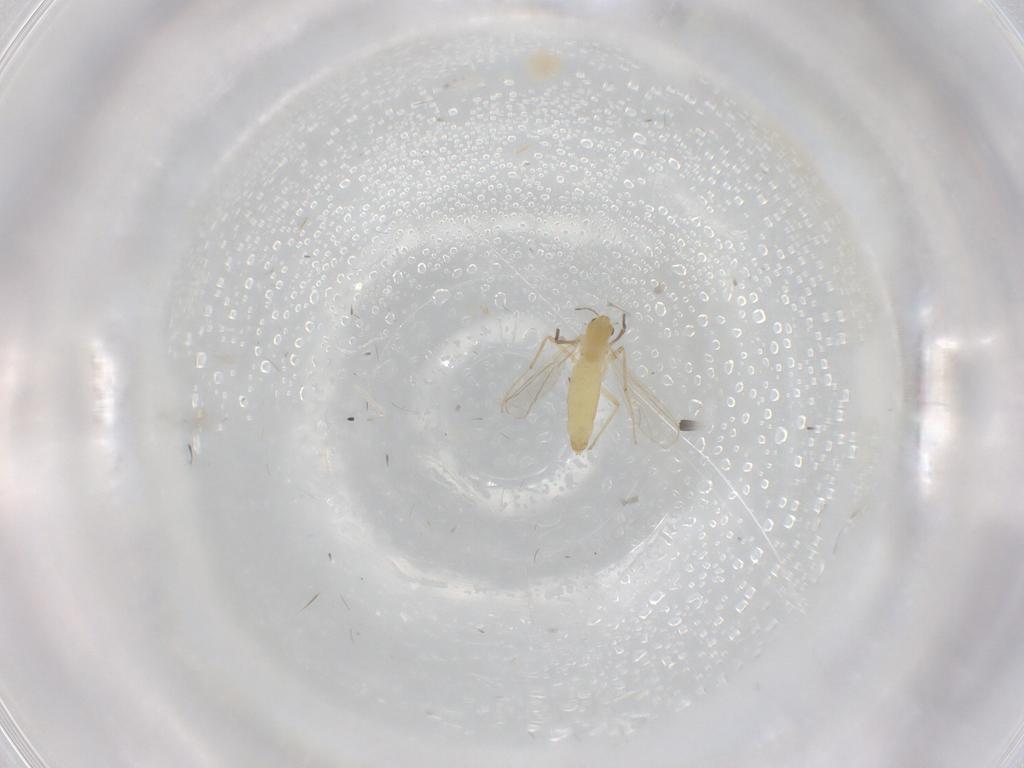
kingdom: Animalia
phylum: Arthropoda
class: Insecta
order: Diptera
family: Chironomidae
